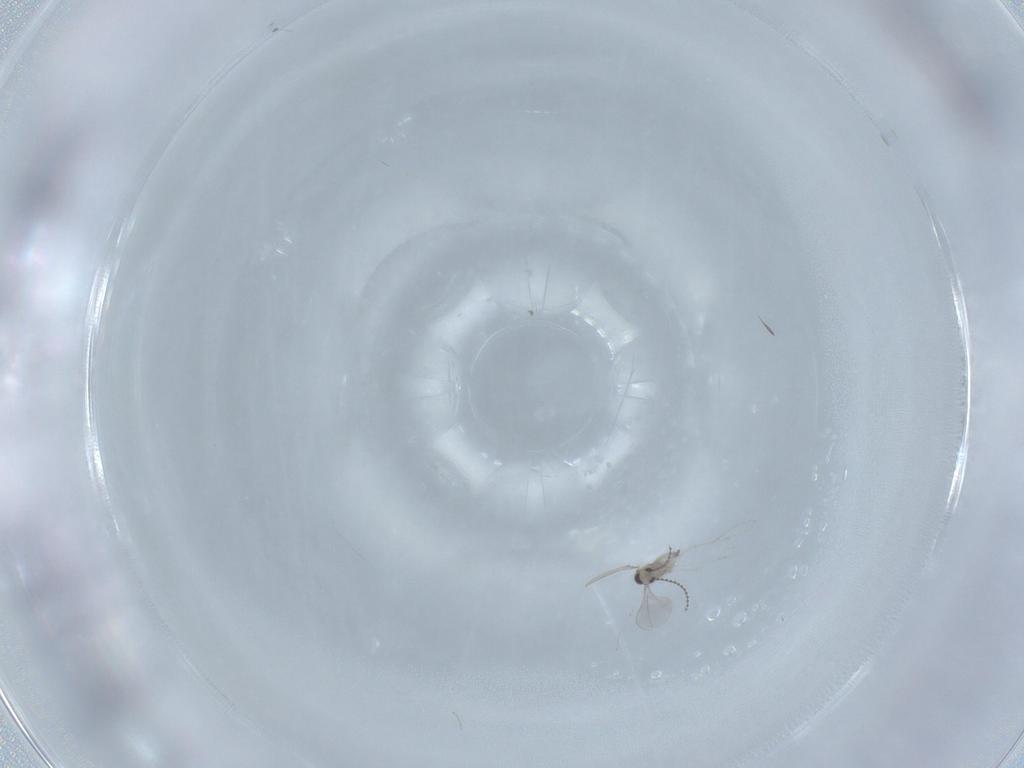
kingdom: Animalia
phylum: Arthropoda
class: Insecta
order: Diptera
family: Cecidomyiidae
